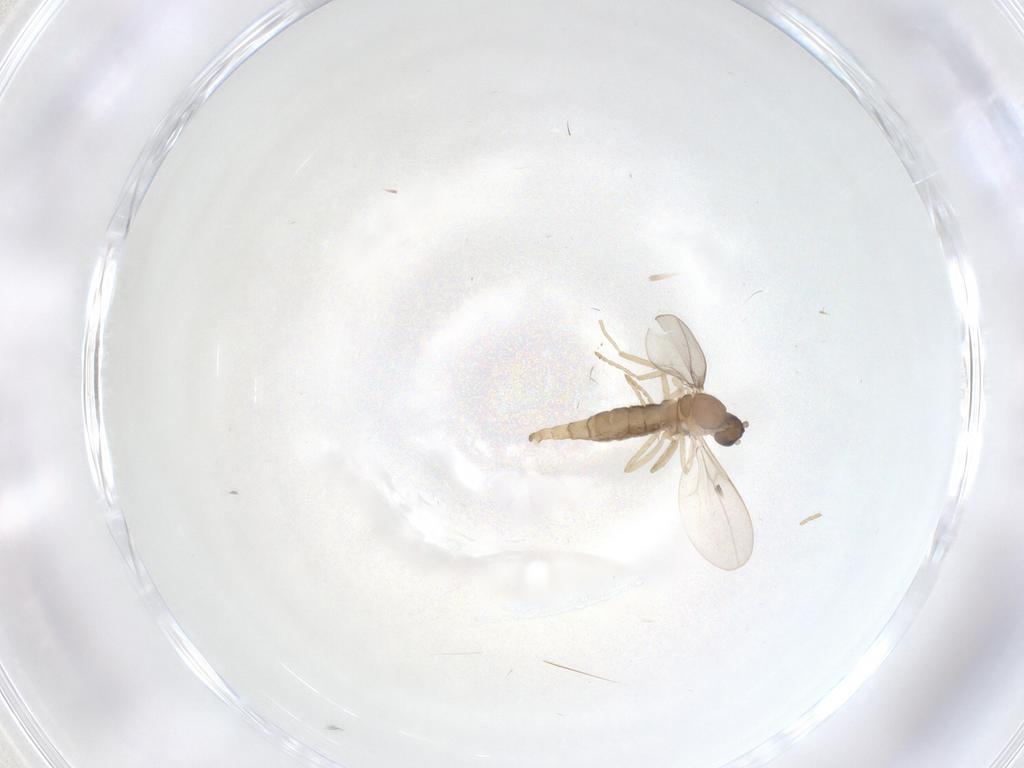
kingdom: Animalia
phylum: Arthropoda
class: Insecta
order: Diptera
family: Cecidomyiidae
